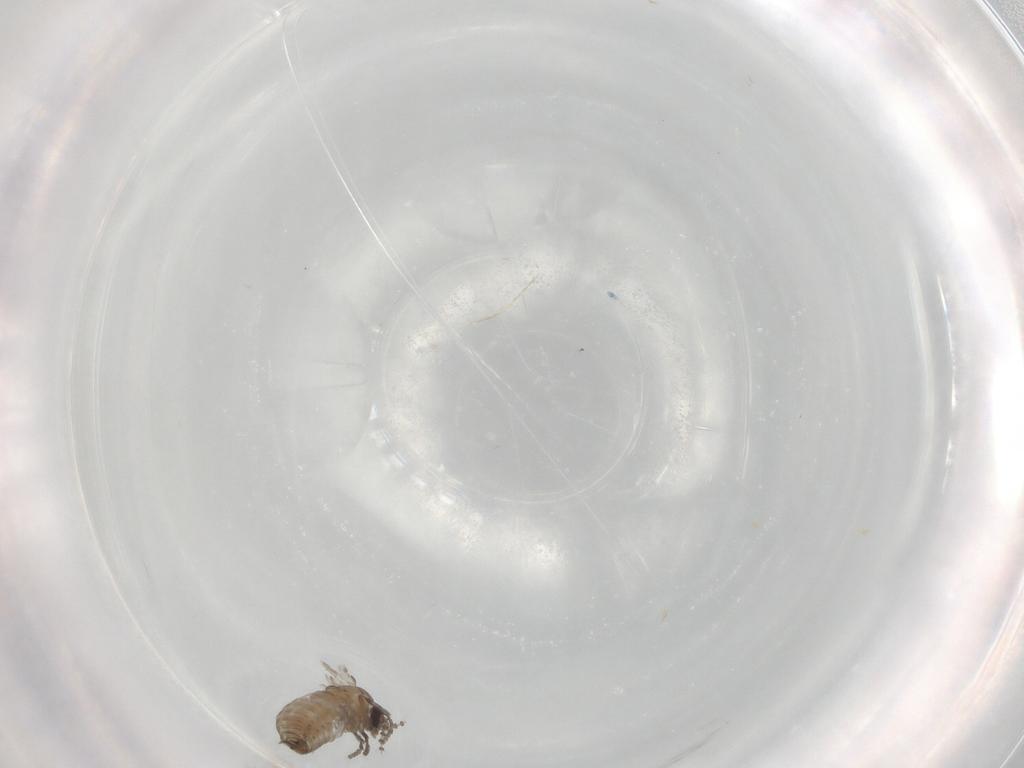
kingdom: Animalia
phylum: Arthropoda
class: Insecta
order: Diptera
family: Psychodidae
